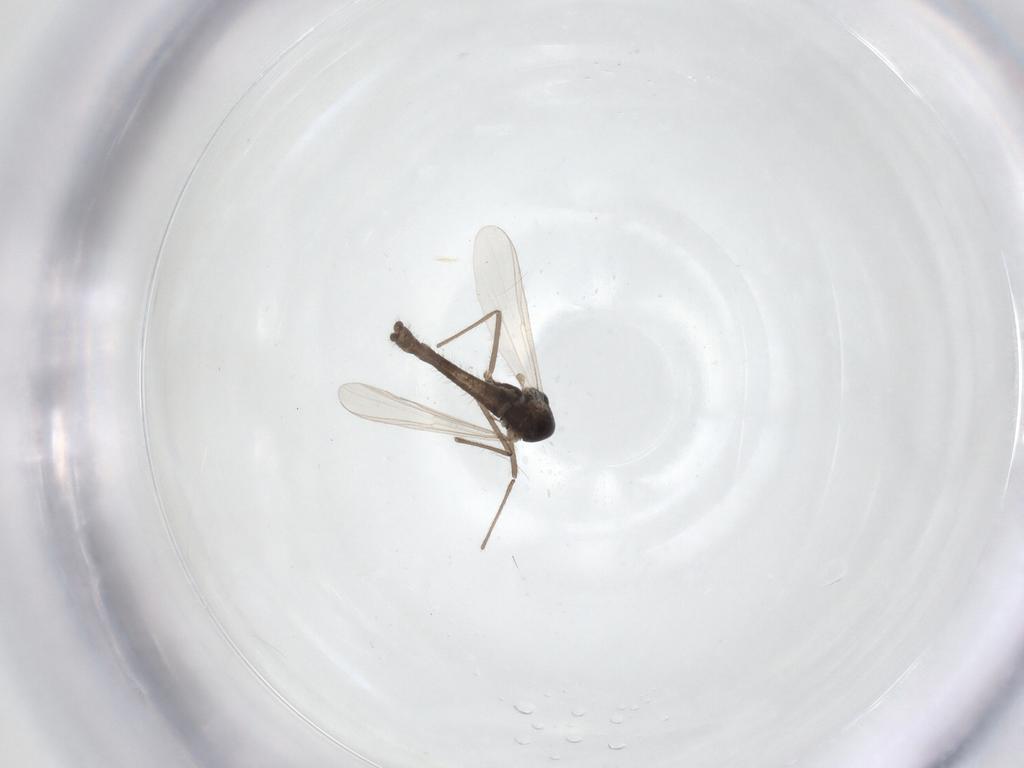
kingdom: Animalia
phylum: Arthropoda
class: Insecta
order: Diptera
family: Chironomidae
